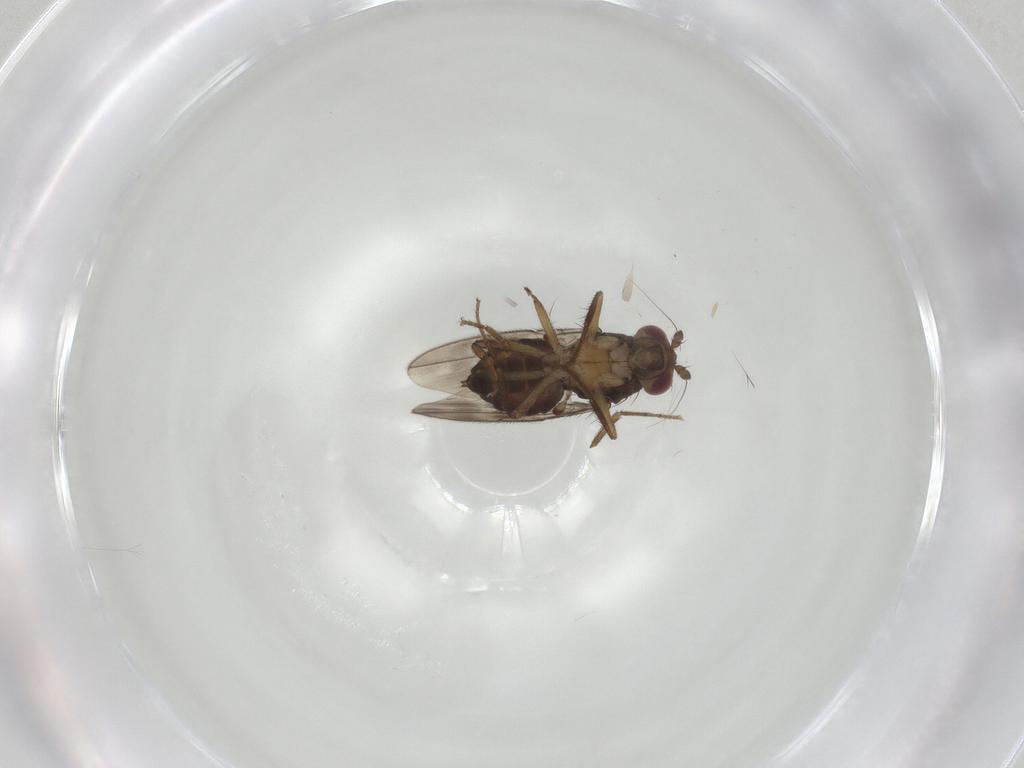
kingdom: Animalia
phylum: Arthropoda
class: Insecta
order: Diptera
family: Sphaeroceridae
